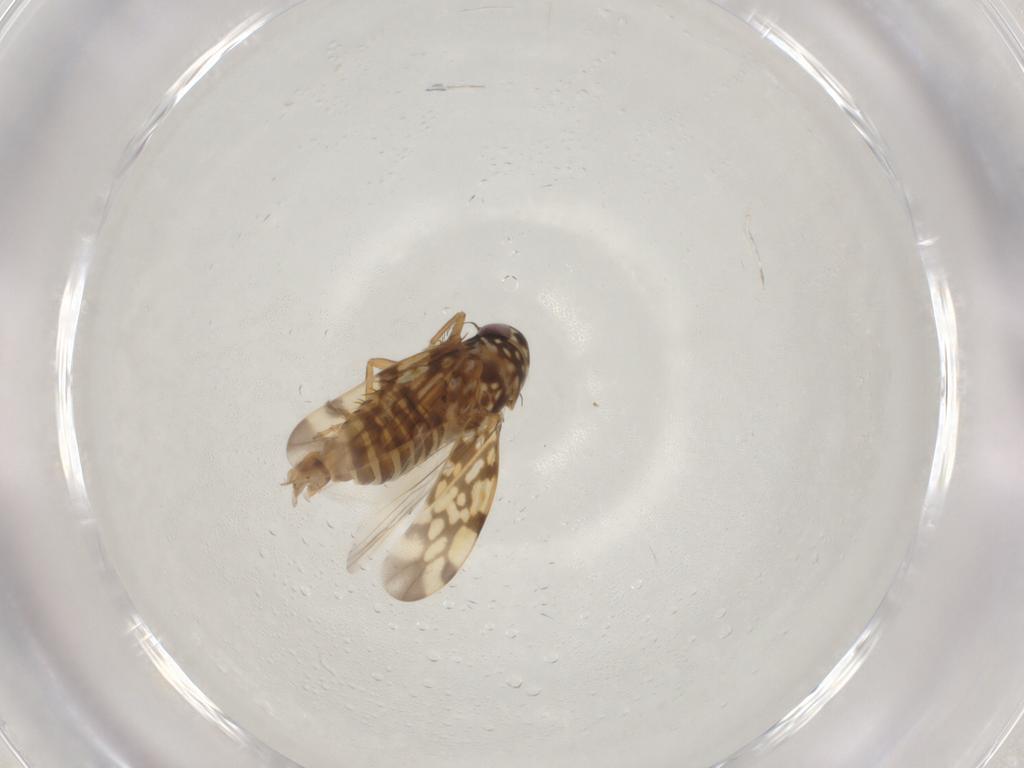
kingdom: Animalia
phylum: Arthropoda
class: Insecta
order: Hemiptera
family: Cicadellidae
